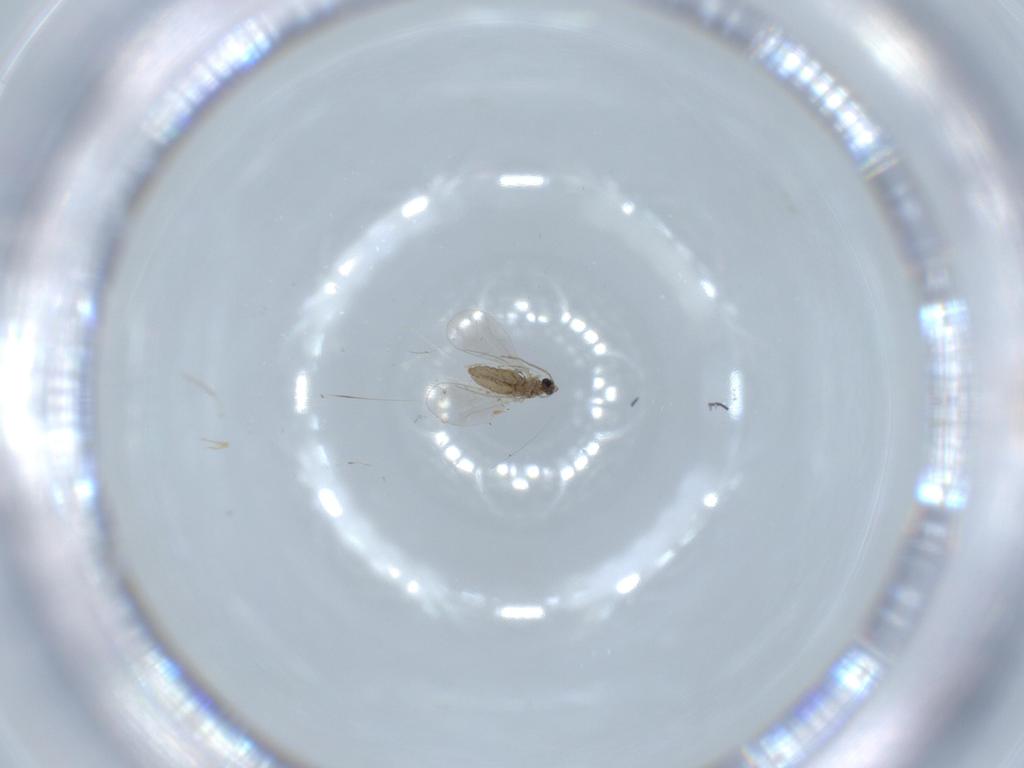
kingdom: Animalia
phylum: Arthropoda
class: Insecta
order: Diptera
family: Cecidomyiidae
